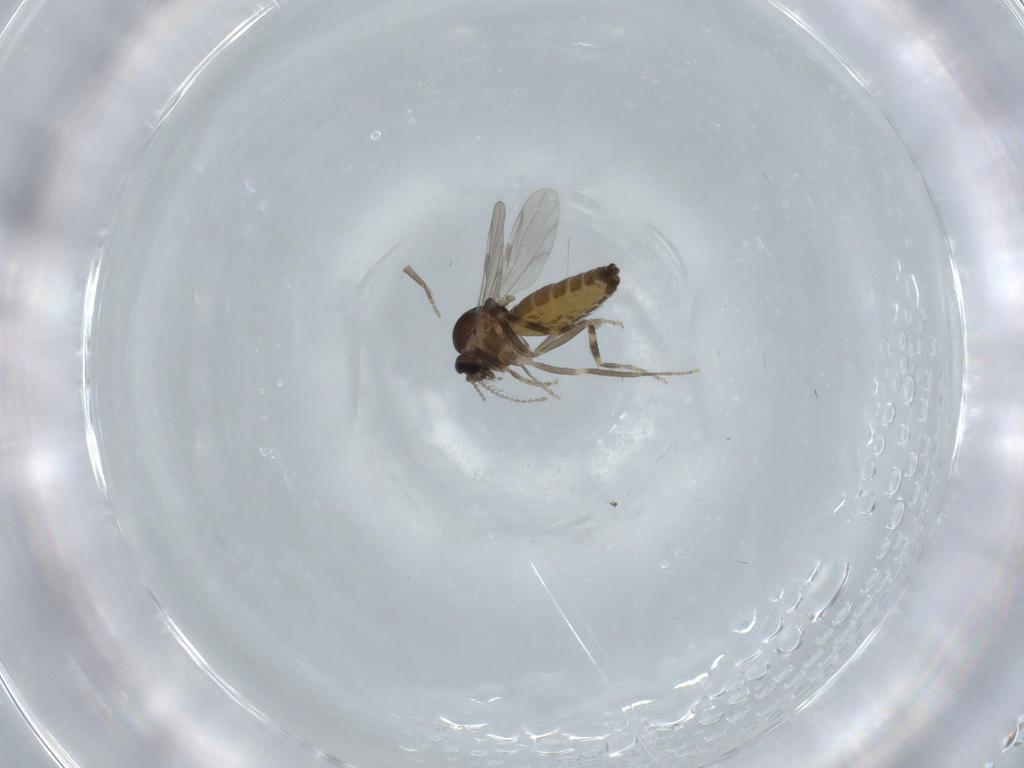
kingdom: Animalia
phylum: Arthropoda
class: Insecta
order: Diptera
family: Ceratopogonidae
